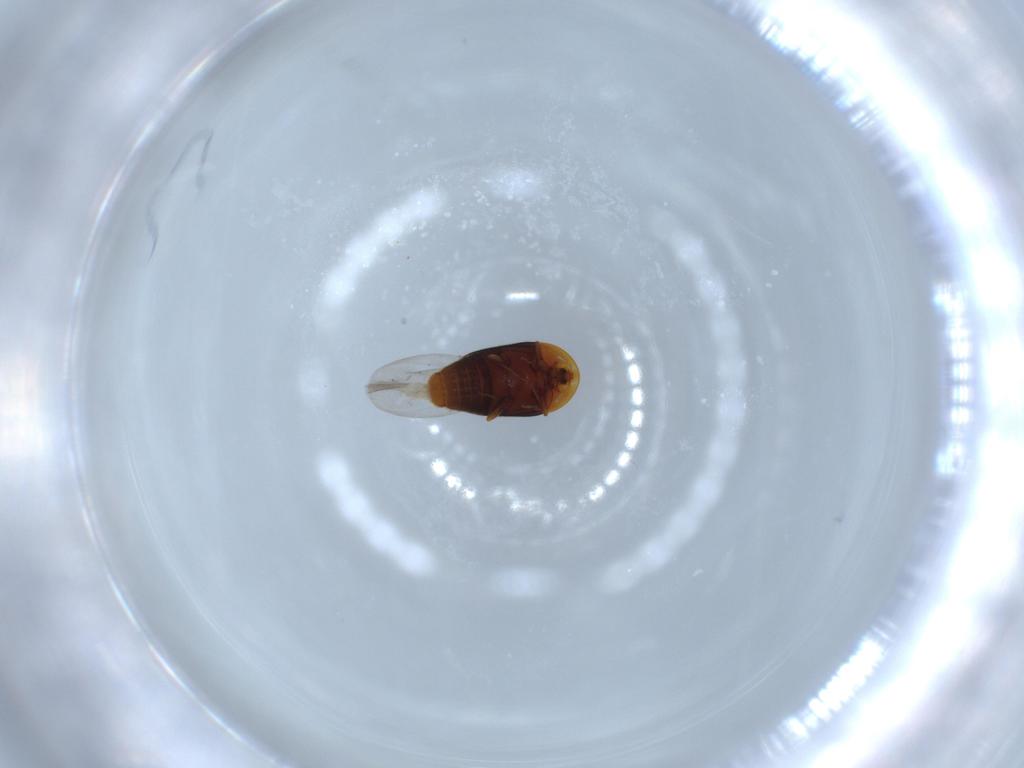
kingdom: Animalia
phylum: Arthropoda
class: Insecta
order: Coleoptera
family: Corylophidae
